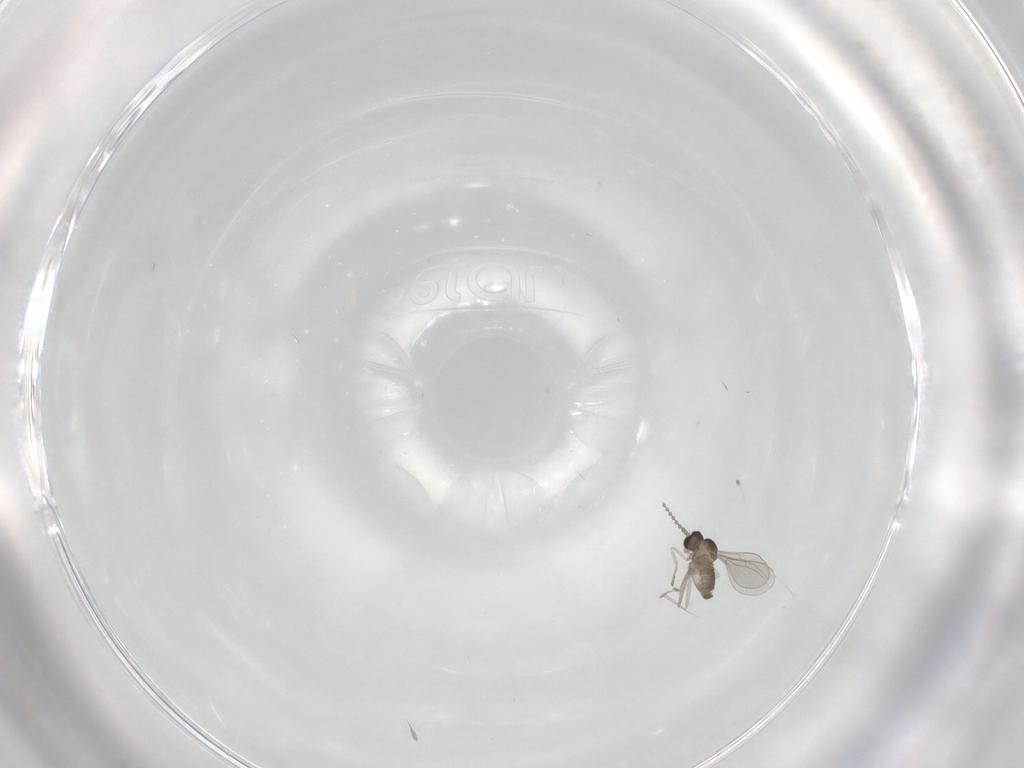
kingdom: Animalia
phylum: Arthropoda
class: Insecta
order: Diptera
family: Cecidomyiidae
